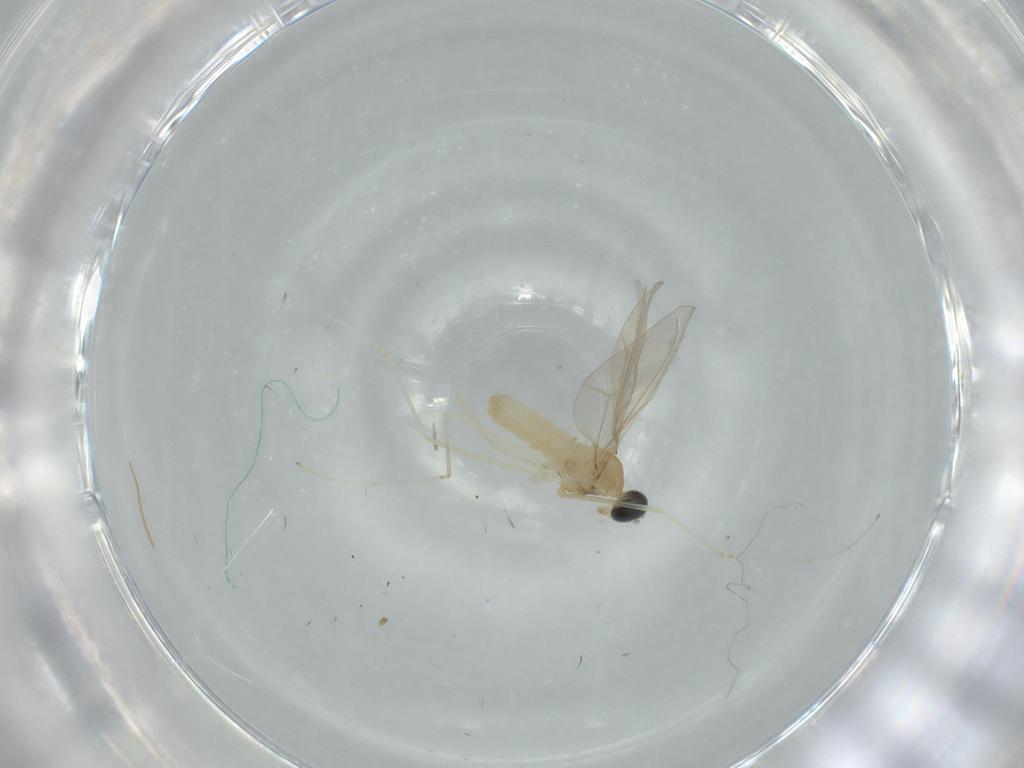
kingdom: Animalia
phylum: Arthropoda
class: Insecta
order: Diptera
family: Cecidomyiidae
